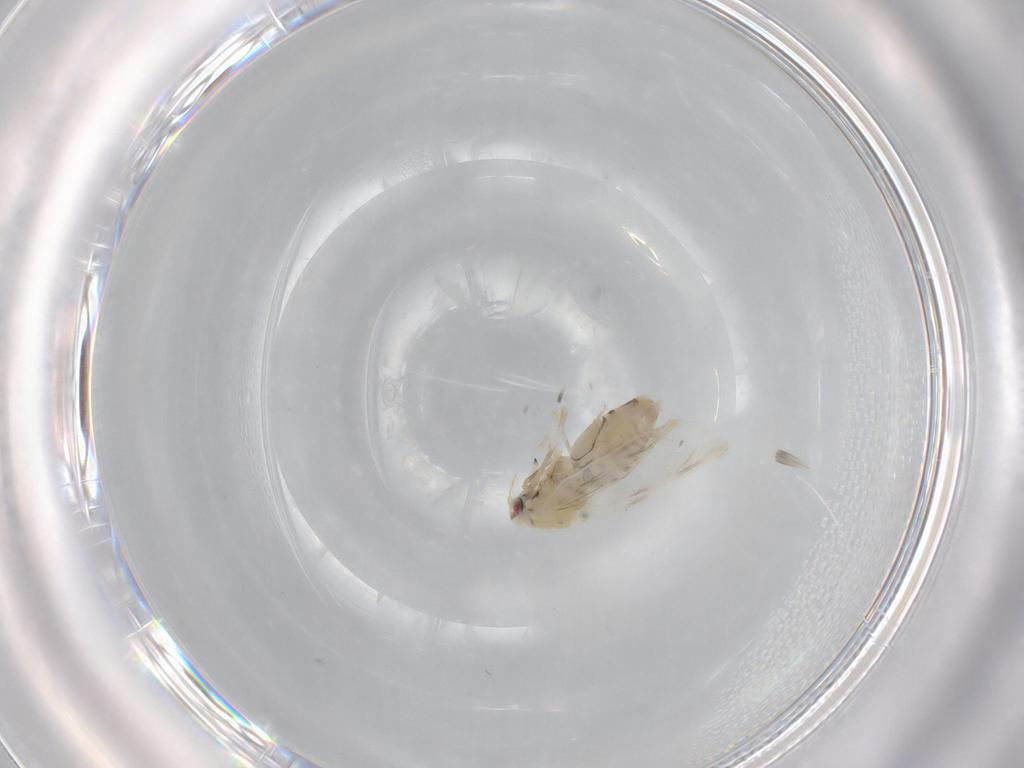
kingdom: Animalia
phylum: Arthropoda
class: Insecta
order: Hemiptera
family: Aleyrodidae
